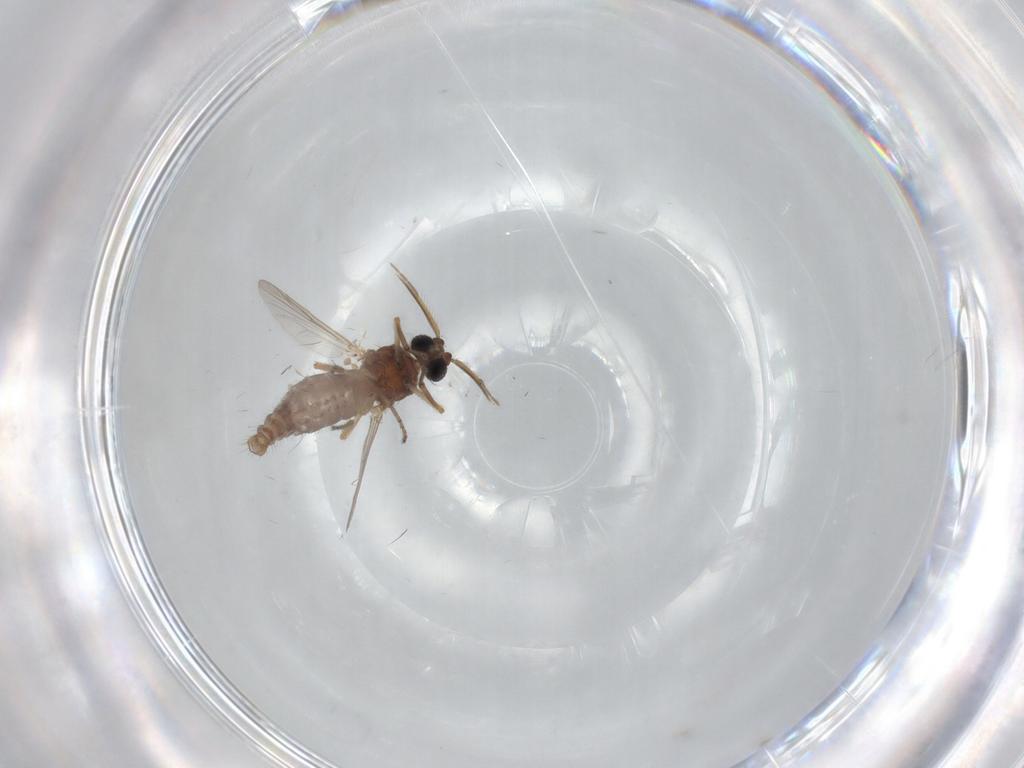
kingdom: Animalia
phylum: Arthropoda
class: Insecta
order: Diptera
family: Ceratopogonidae
